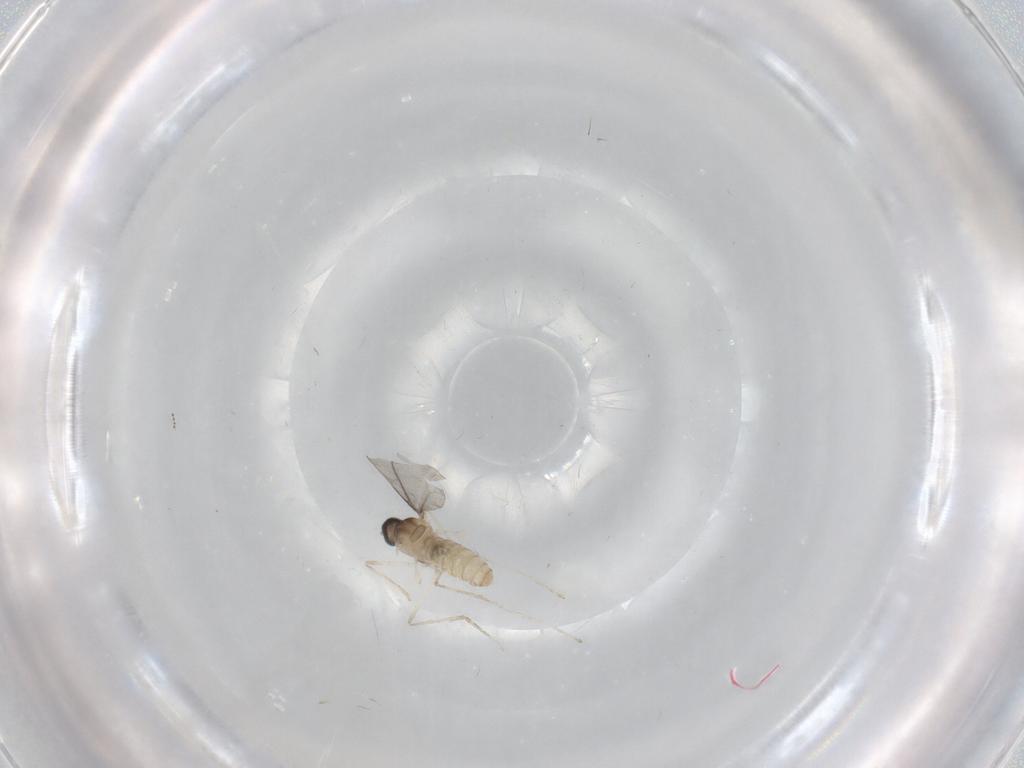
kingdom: Animalia
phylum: Arthropoda
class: Insecta
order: Diptera
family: Cecidomyiidae
